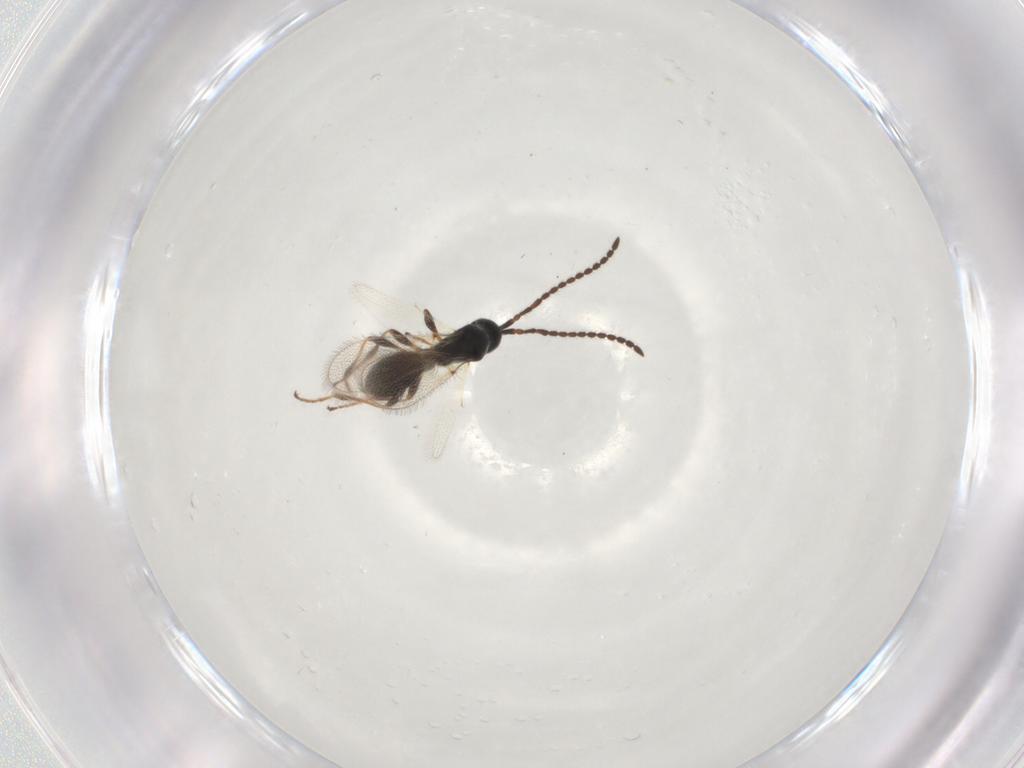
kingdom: Animalia
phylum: Arthropoda
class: Insecta
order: Hymenoptera
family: Diapriidae
